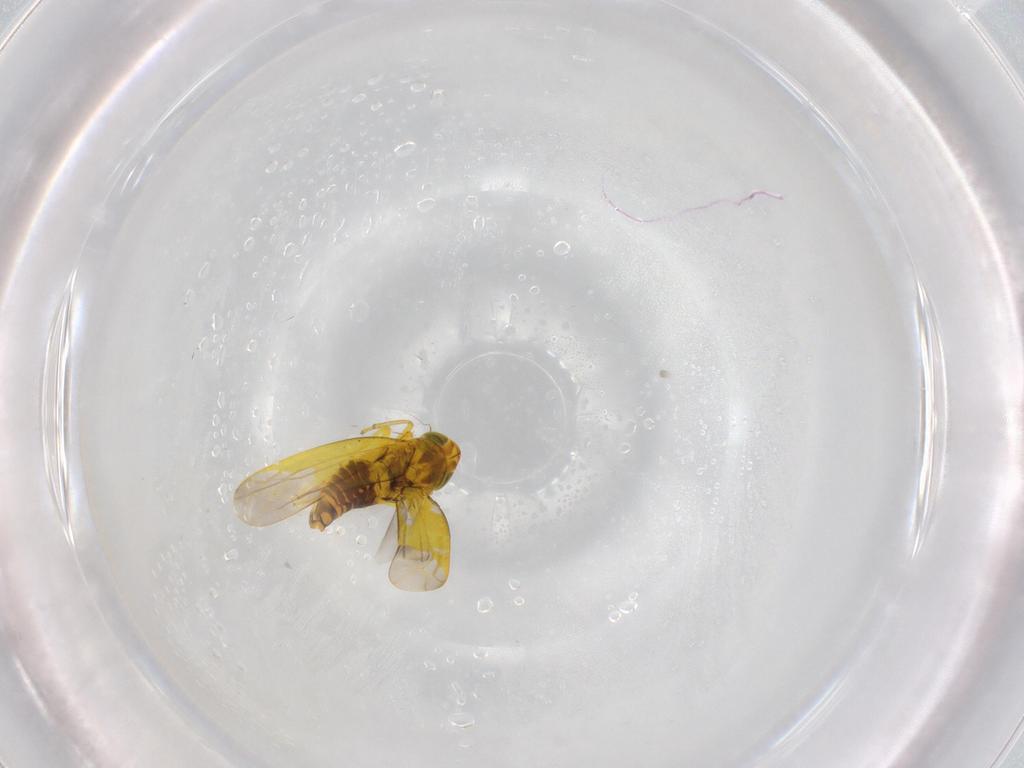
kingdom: Animalia
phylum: Arthropoda
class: Insecta
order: Hemiptera
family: Cicadellidae
